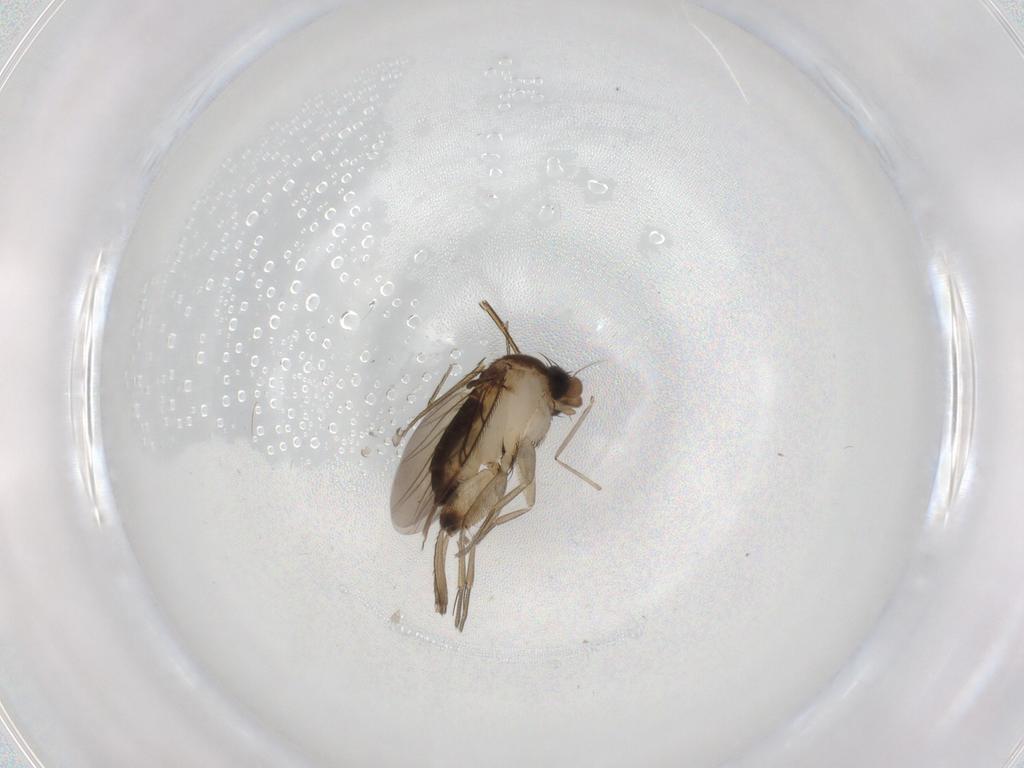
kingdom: Animalia
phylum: Arthropoda
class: Insecta
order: Diptera
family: Phoridae
